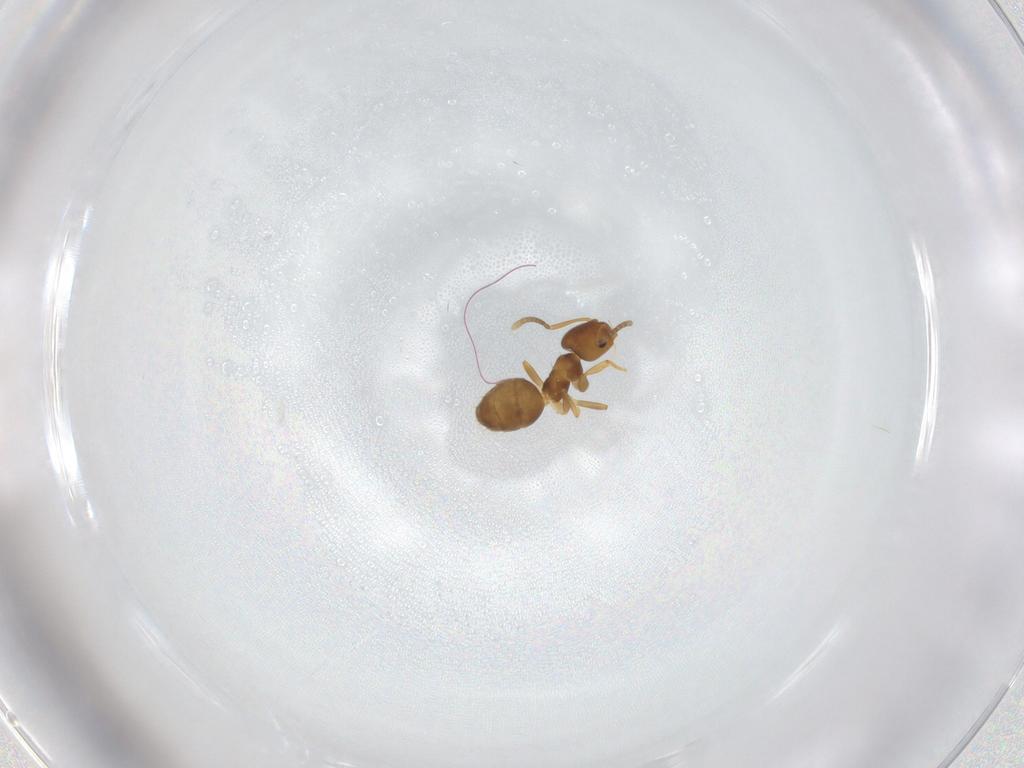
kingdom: Animalia
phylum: Arthropoda
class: Insecta
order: Hymenoptera
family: Formicidae
